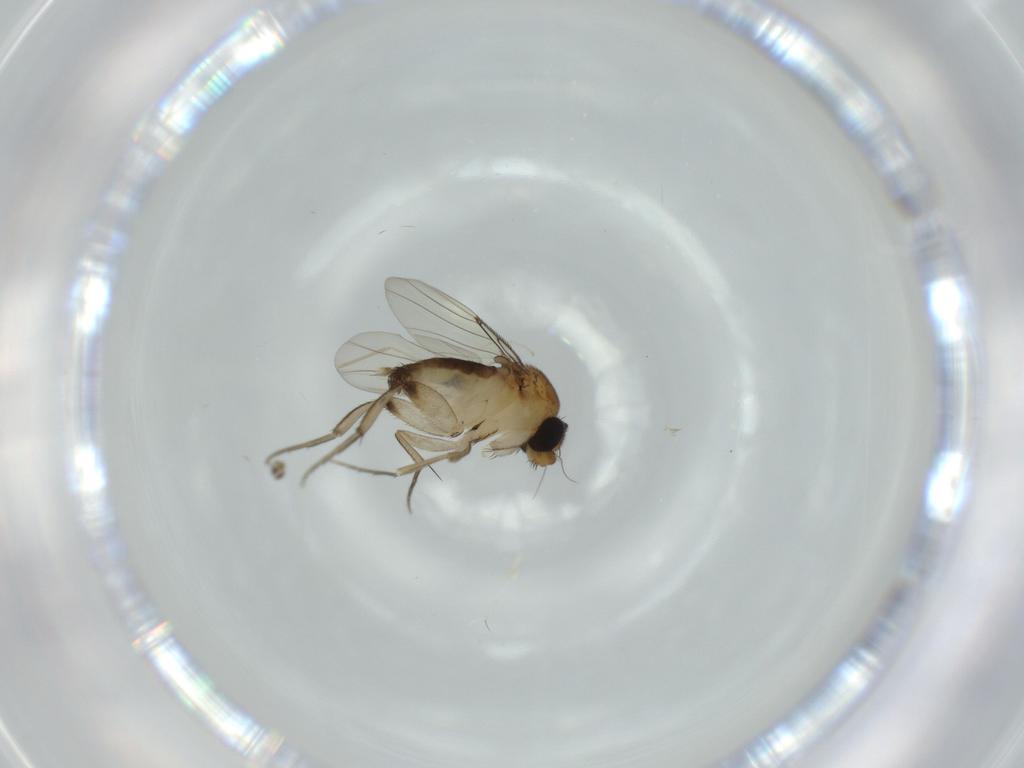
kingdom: Animalia
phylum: Arthropoda
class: Insecta
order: Diptera
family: Phoridae
